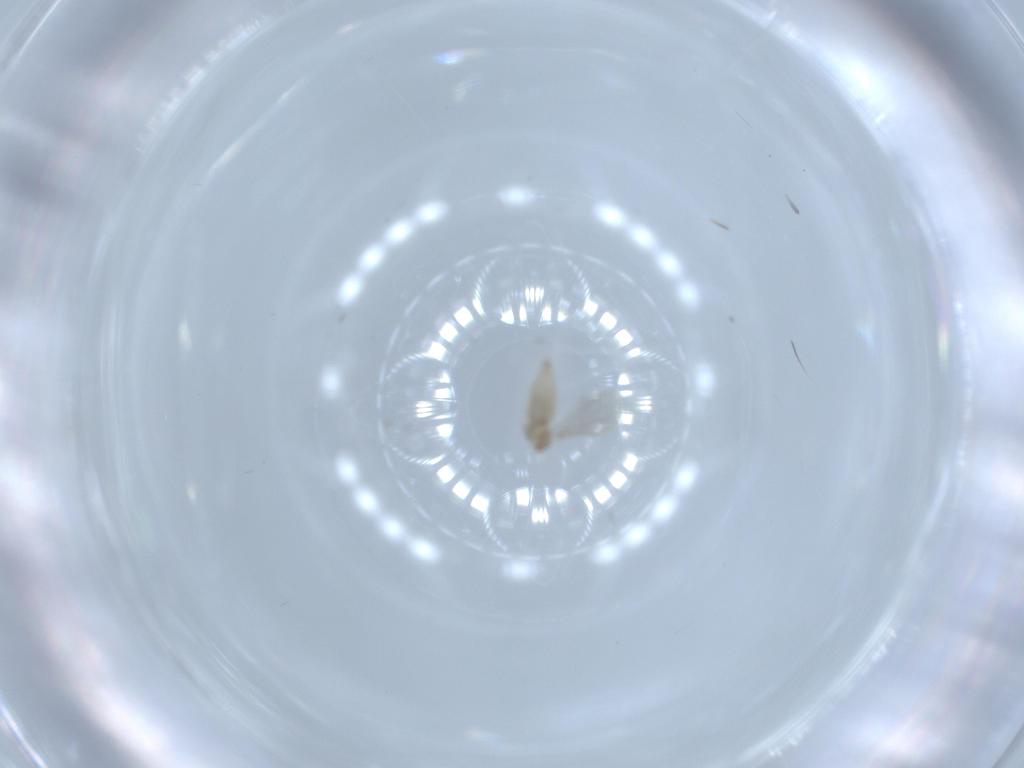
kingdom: Animalia
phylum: Arthropoda
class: Insecta
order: Diptera
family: Cecidomyiidae
